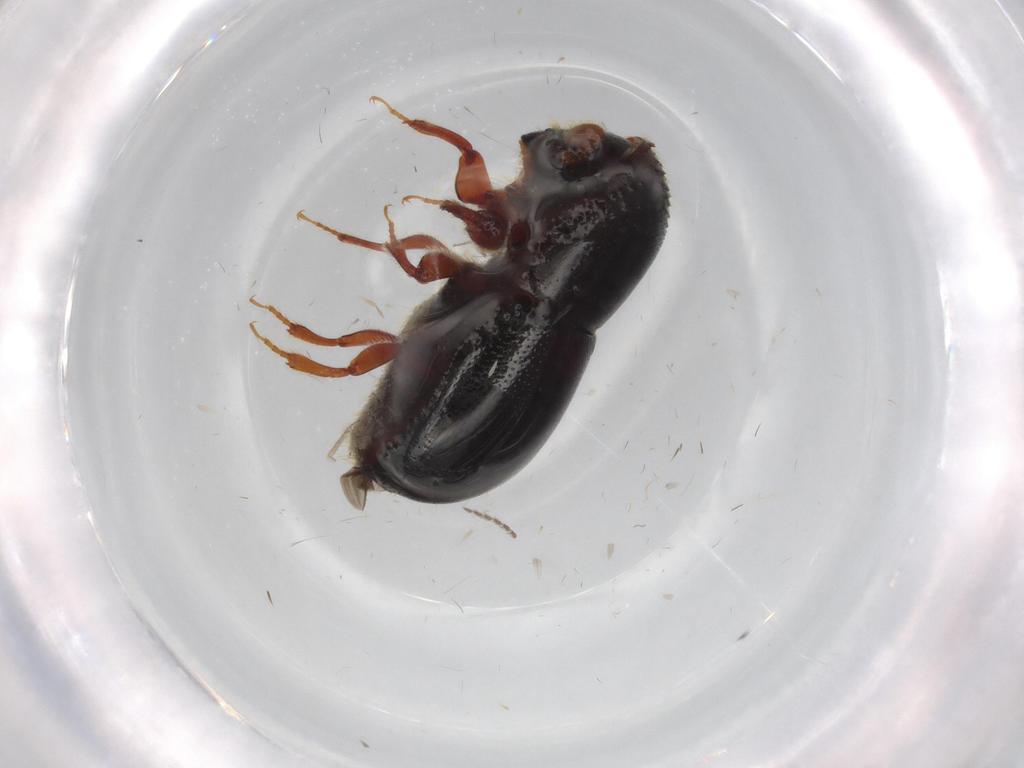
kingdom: Animalia
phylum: Arthropoda
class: Insecta
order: Coleoptera
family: Curculionidae
